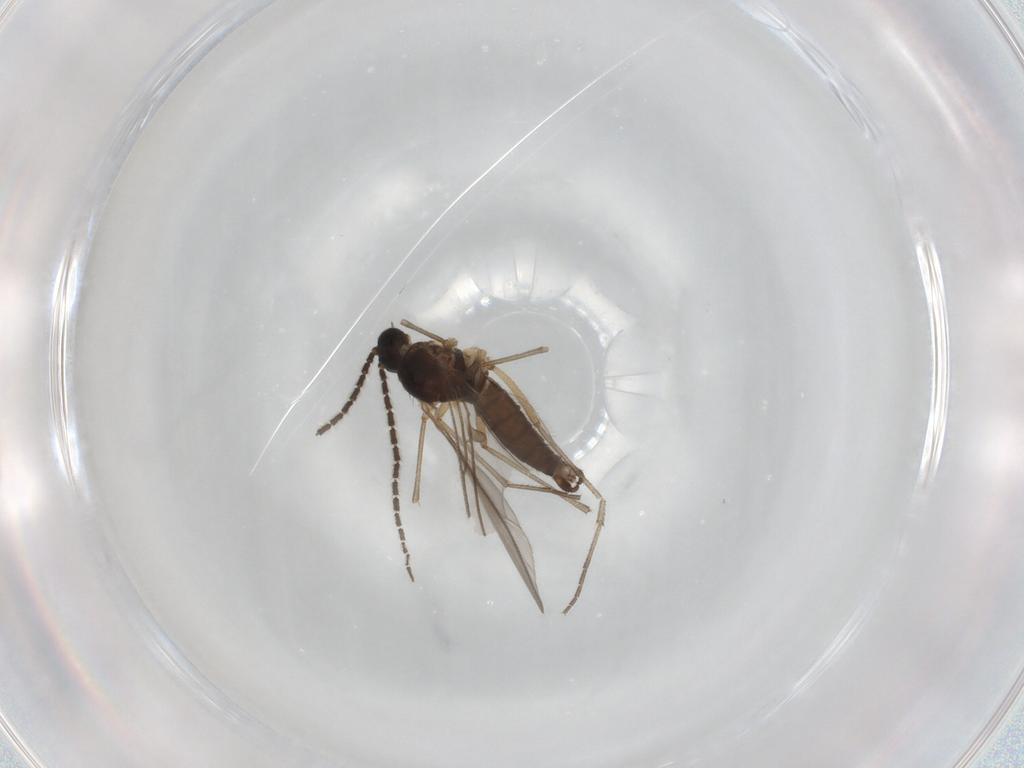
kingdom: Animalia
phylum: Arthropoda
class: Insecta
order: Diptera
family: Sciaridae
